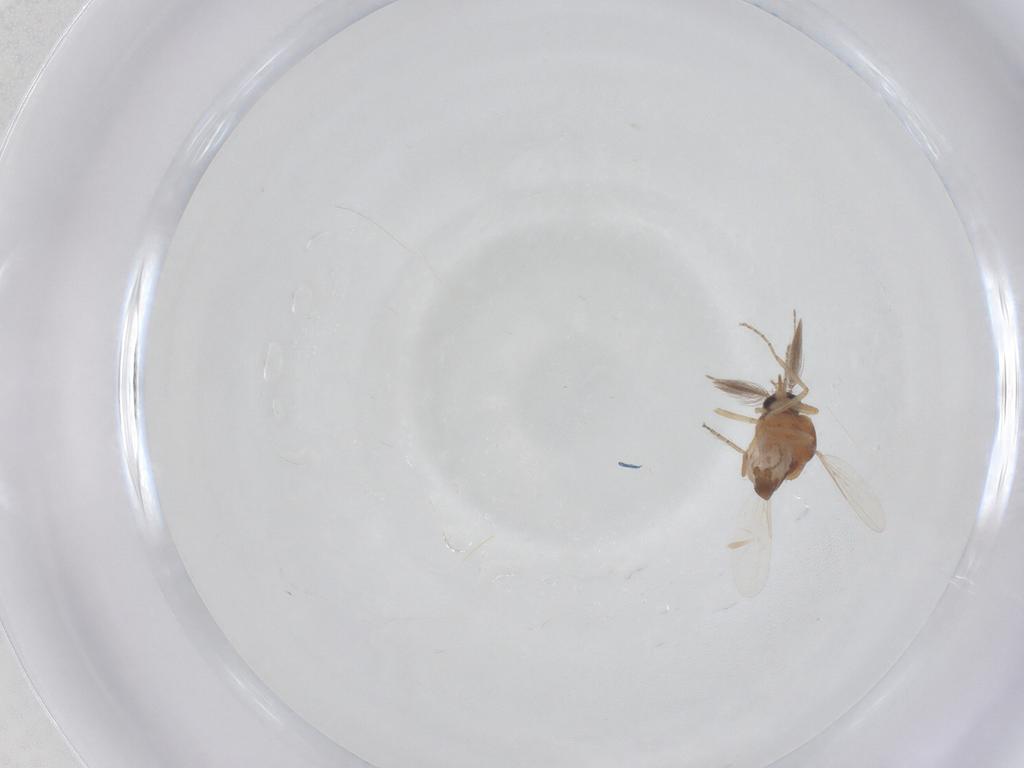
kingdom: Animalia
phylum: Arthropoda
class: Insecta
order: Diptera
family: Ceratopogonidae
